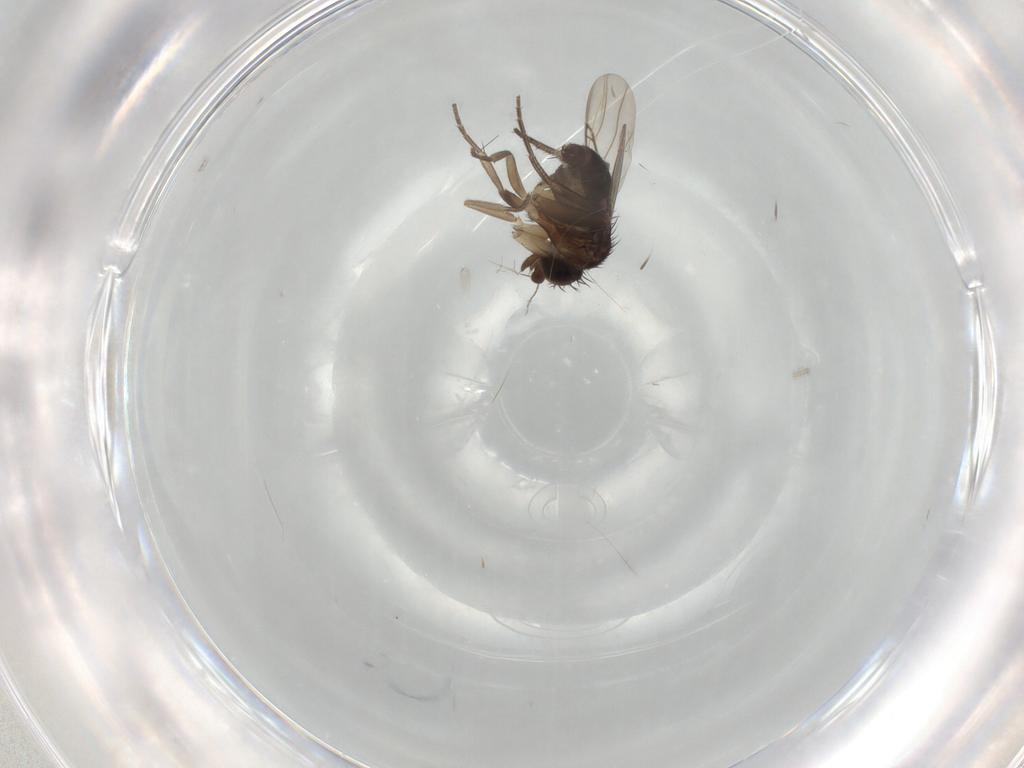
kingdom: Animalia
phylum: Arthropoda
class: Insecta
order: Diptera
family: Phoridae
